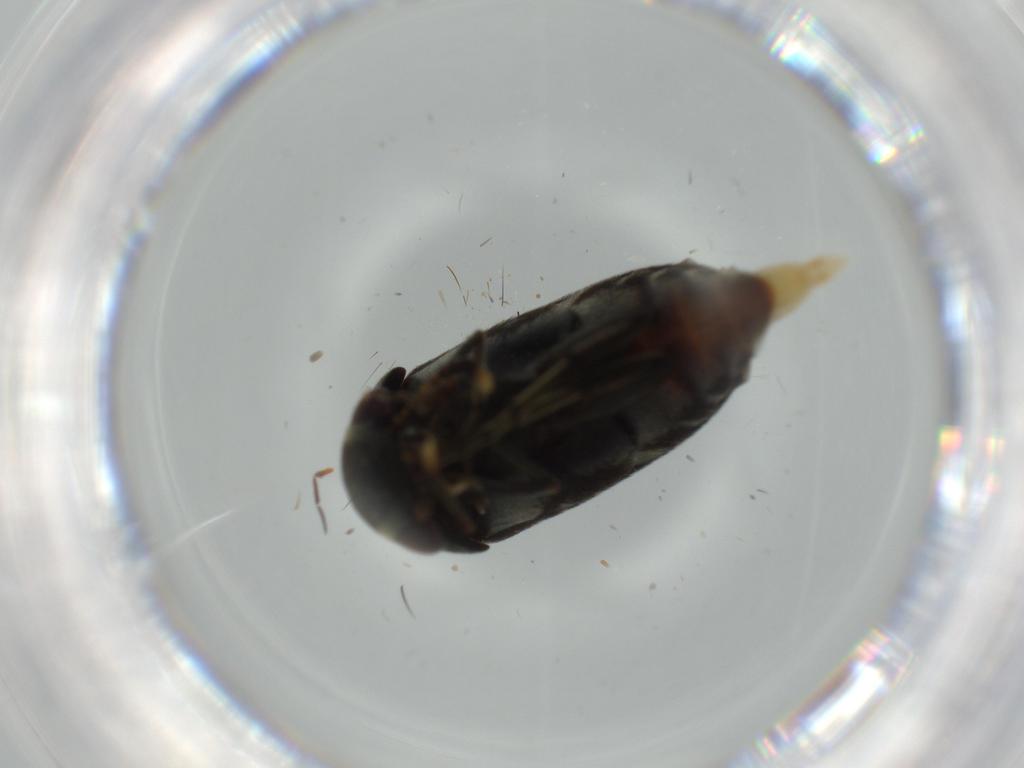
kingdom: Animalia
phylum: Arthropoda
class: Insecta
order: Coleoptera
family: Mordellidae
